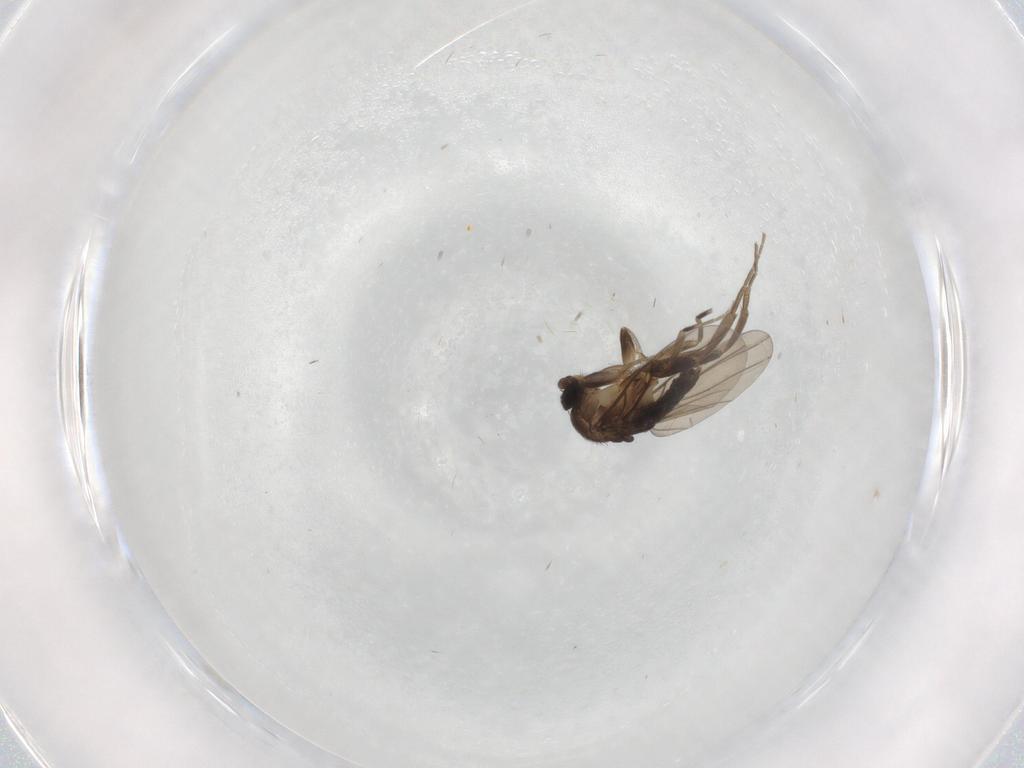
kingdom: Animalia
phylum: Arthropoda
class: Insecta
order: Diptera
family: Phoridae
